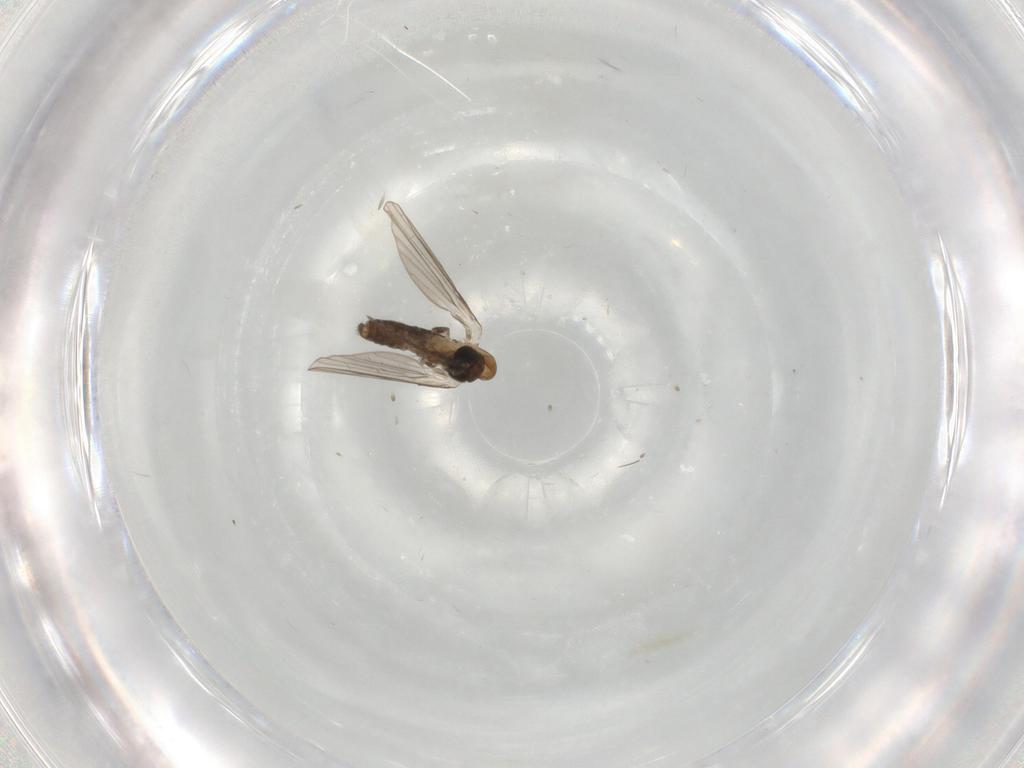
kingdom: Animalia
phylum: Arthropoda
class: Insecta
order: Diptera
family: Psychodidae
